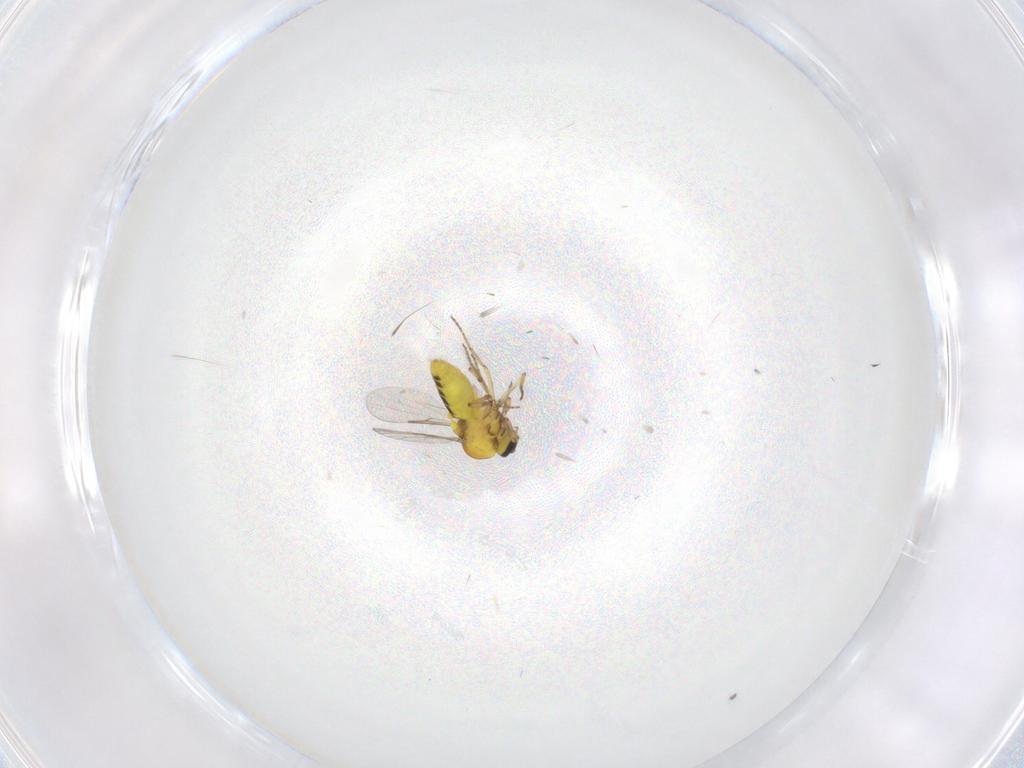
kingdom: Animalia
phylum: Arthropoda
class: Insecta
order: Diptera
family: Ceratopogonidae
